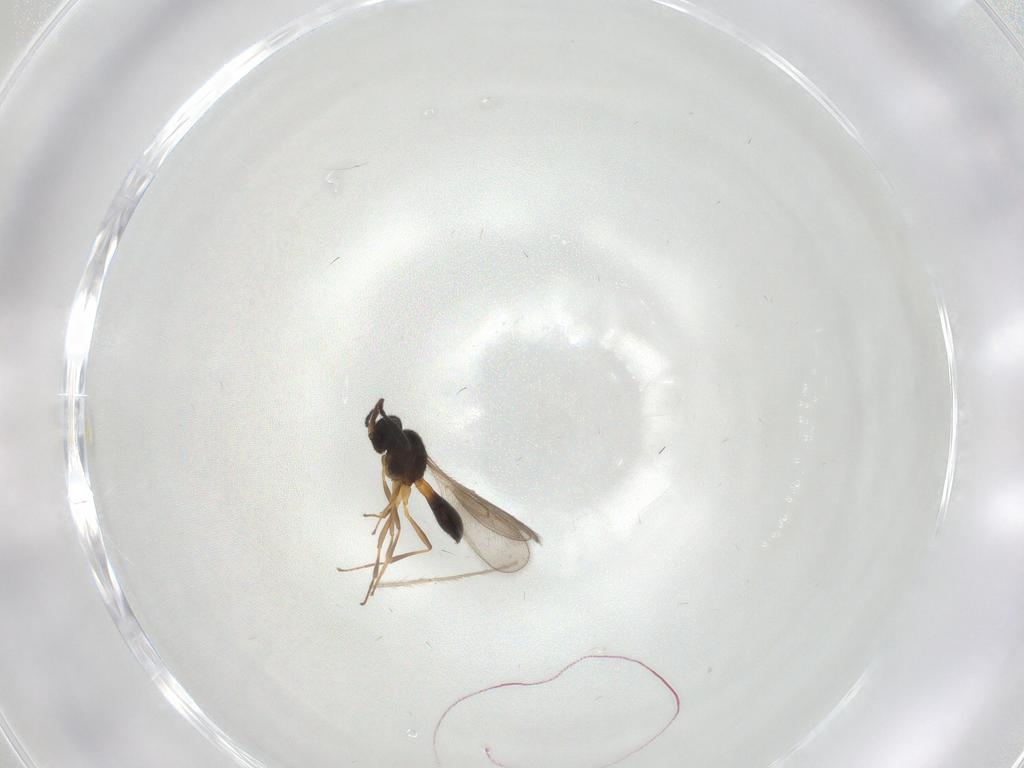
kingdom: Animalia
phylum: Arthropoda
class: Insecta
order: Hymenoptera
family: Scelionidae
